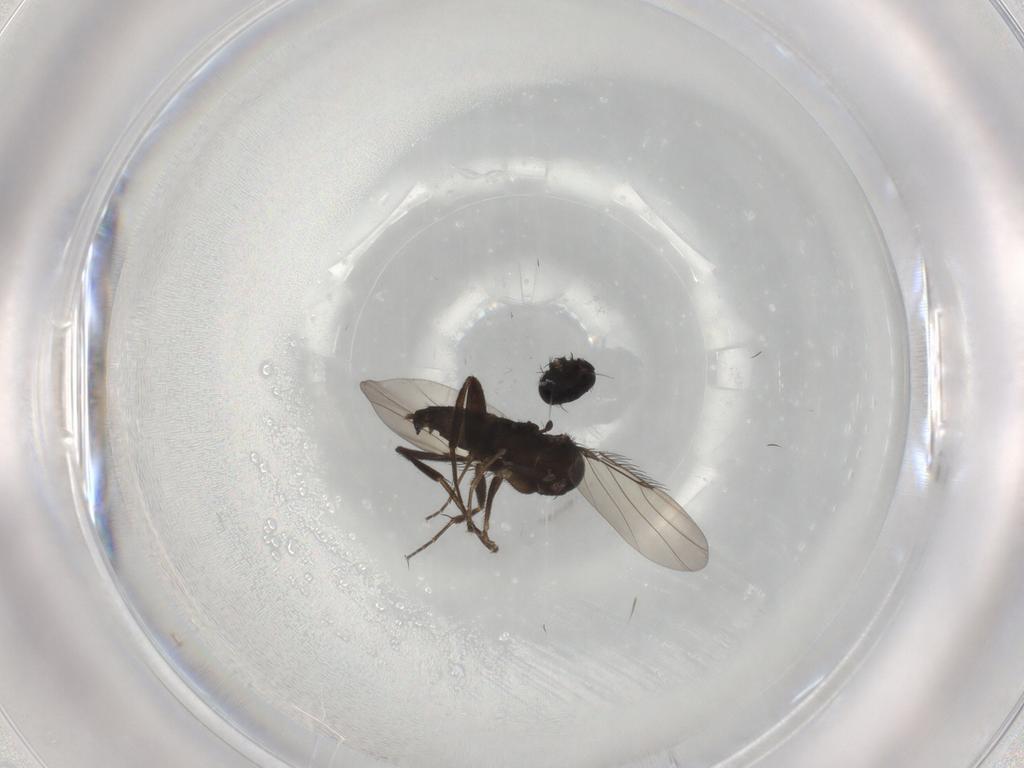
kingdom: Animalia
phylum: Arthropoda
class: Insecta
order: Diptera
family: Phoridae
